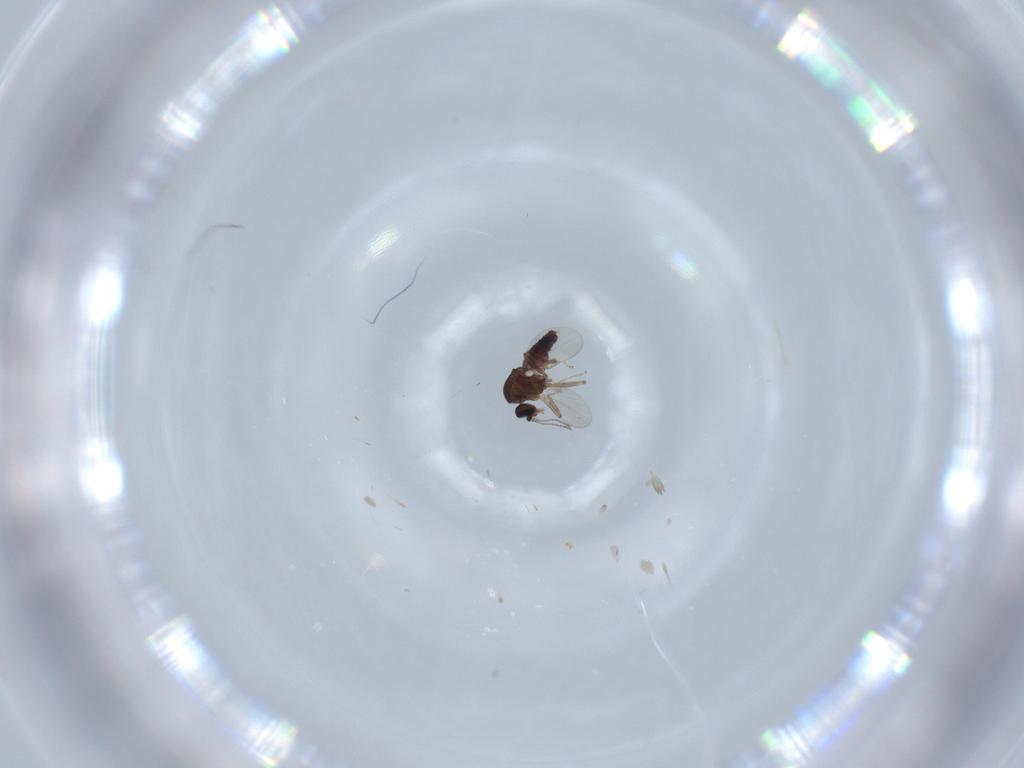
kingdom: Animalia
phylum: Arthropoda
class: Insecta
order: Diptera
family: Ceratopogonidae
